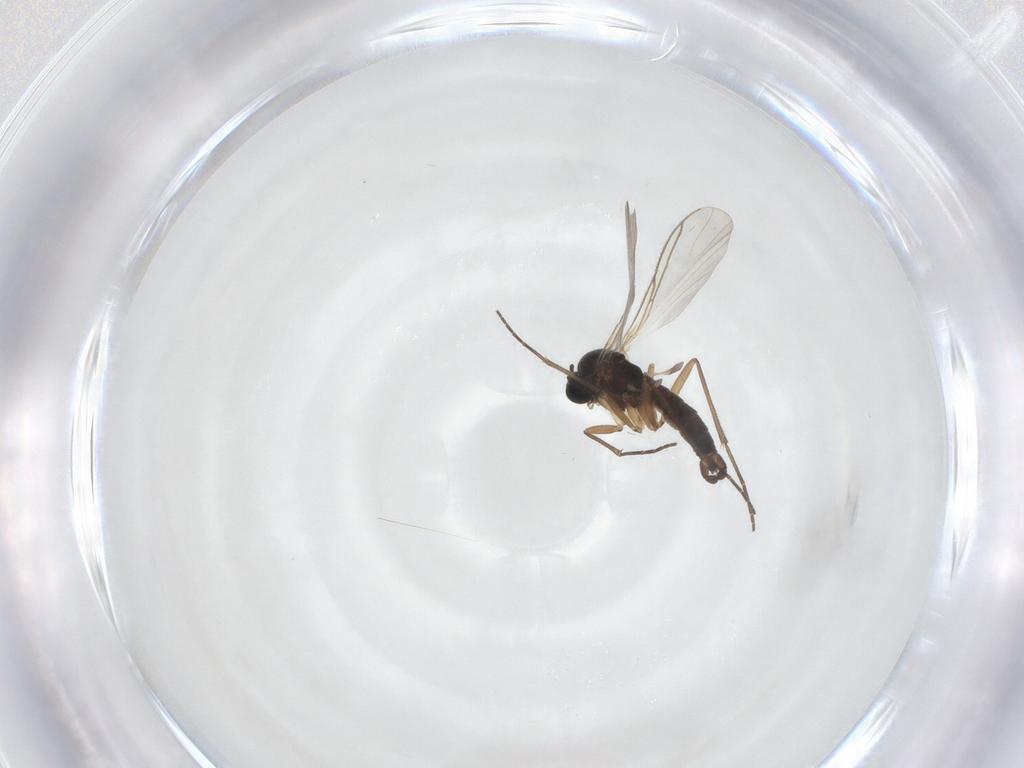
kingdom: Animalia
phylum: Arthropoda
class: Insecta
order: Diptera
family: Sciaridae
